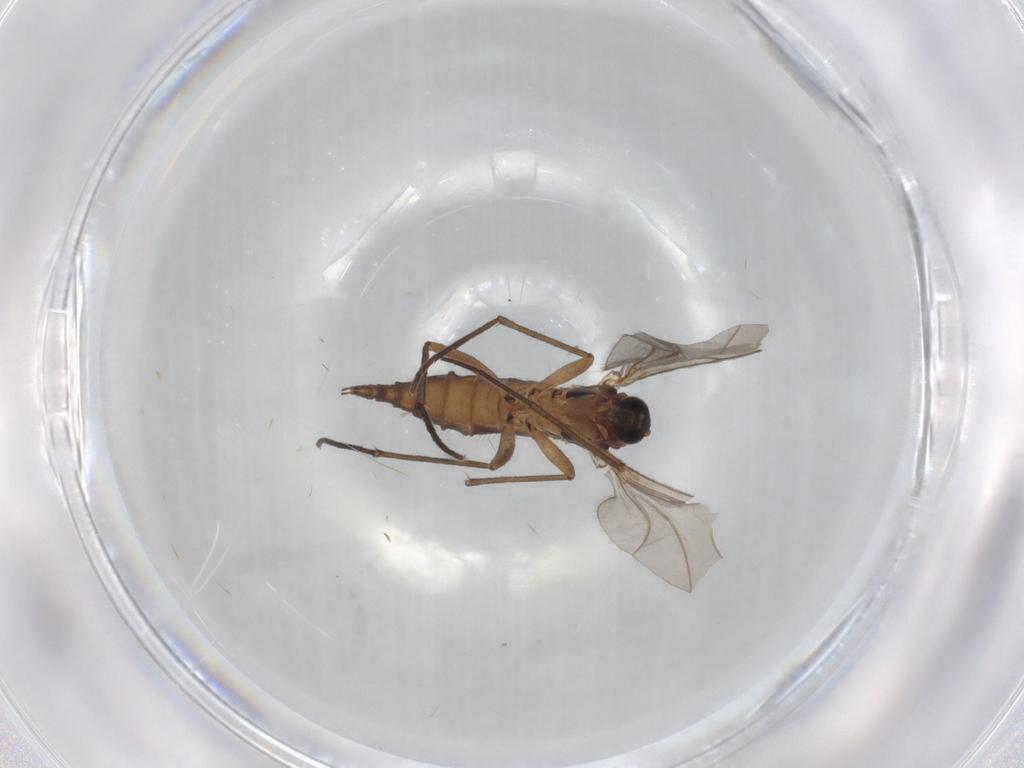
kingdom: Animalia
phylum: Arthropoda
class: Insecta
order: Diptera
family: Sciaridae
